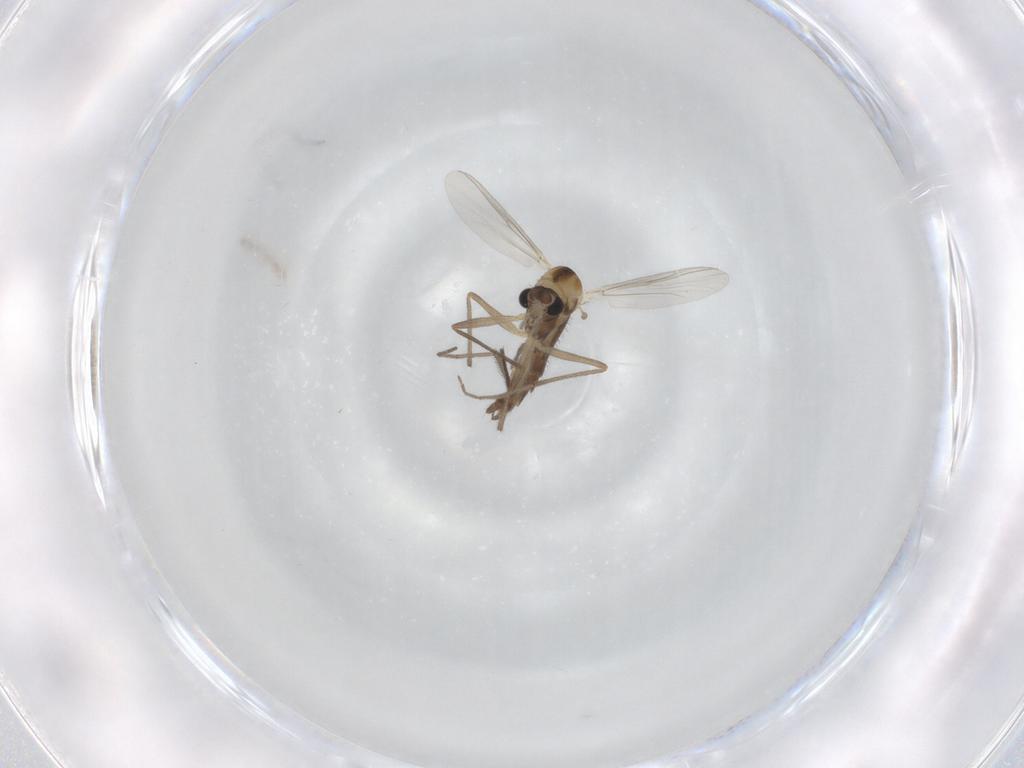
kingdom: Animalia
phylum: Arthropoda
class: Insecta
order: Diptera
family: Chironomidae
